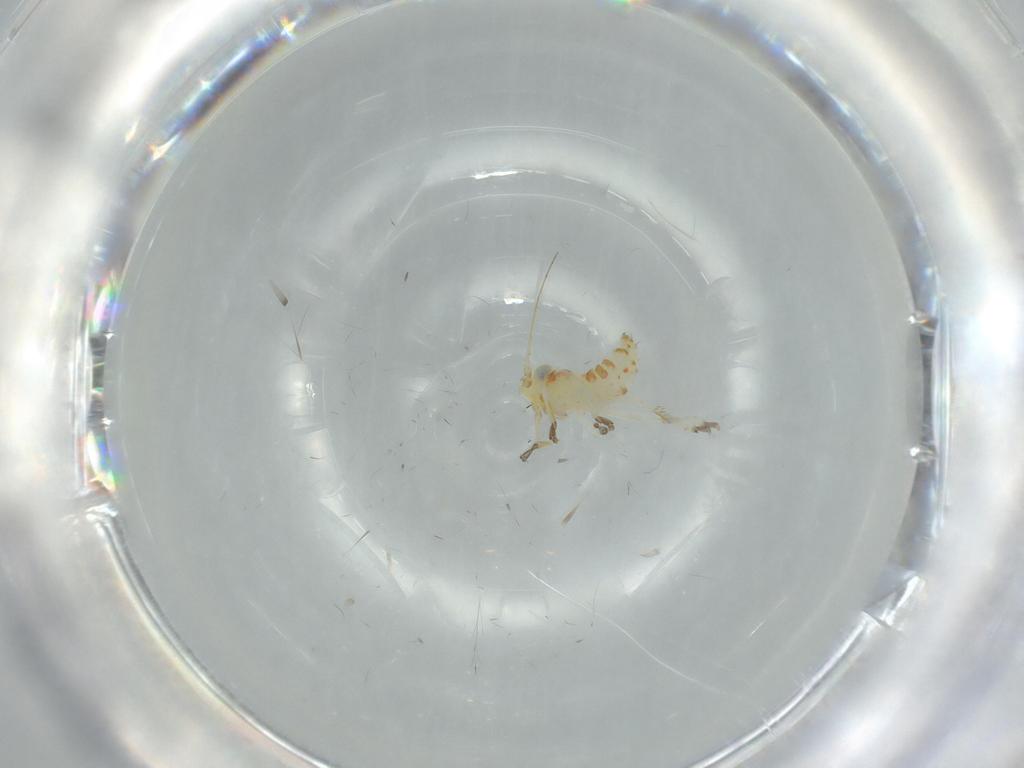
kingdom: Animalia
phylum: Arthropoda
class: Insecta
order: Hemiptera
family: Cicadellidae
